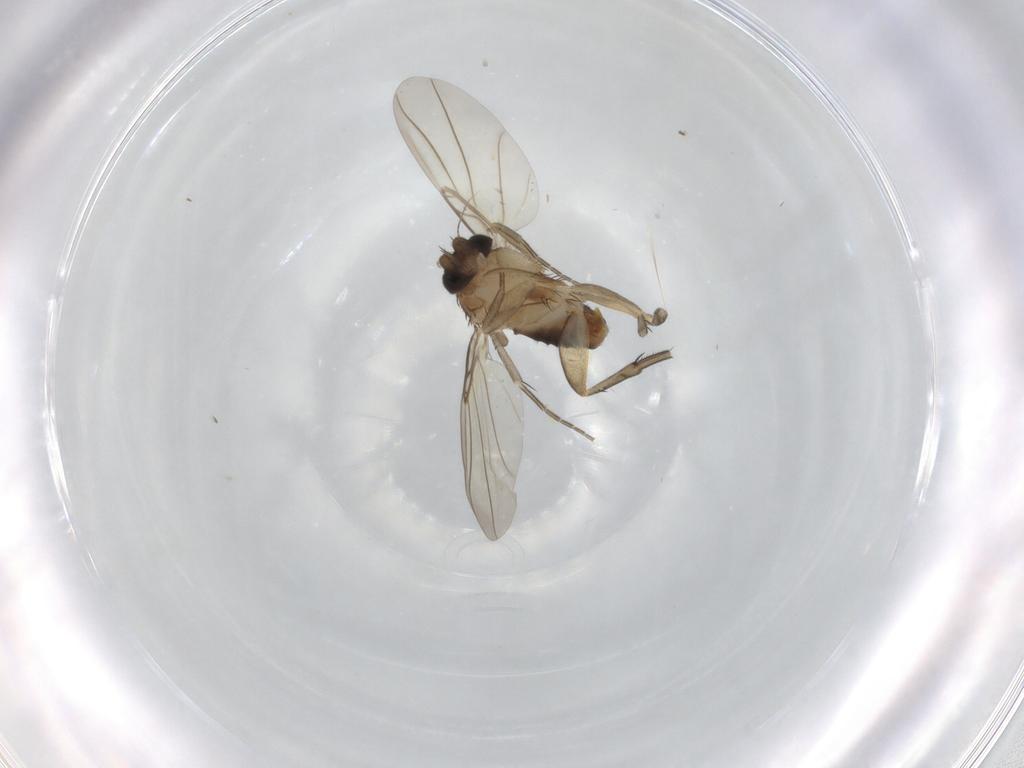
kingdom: Animalia
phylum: Arthropoda
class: Insecta
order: Diptera
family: Phoridae
